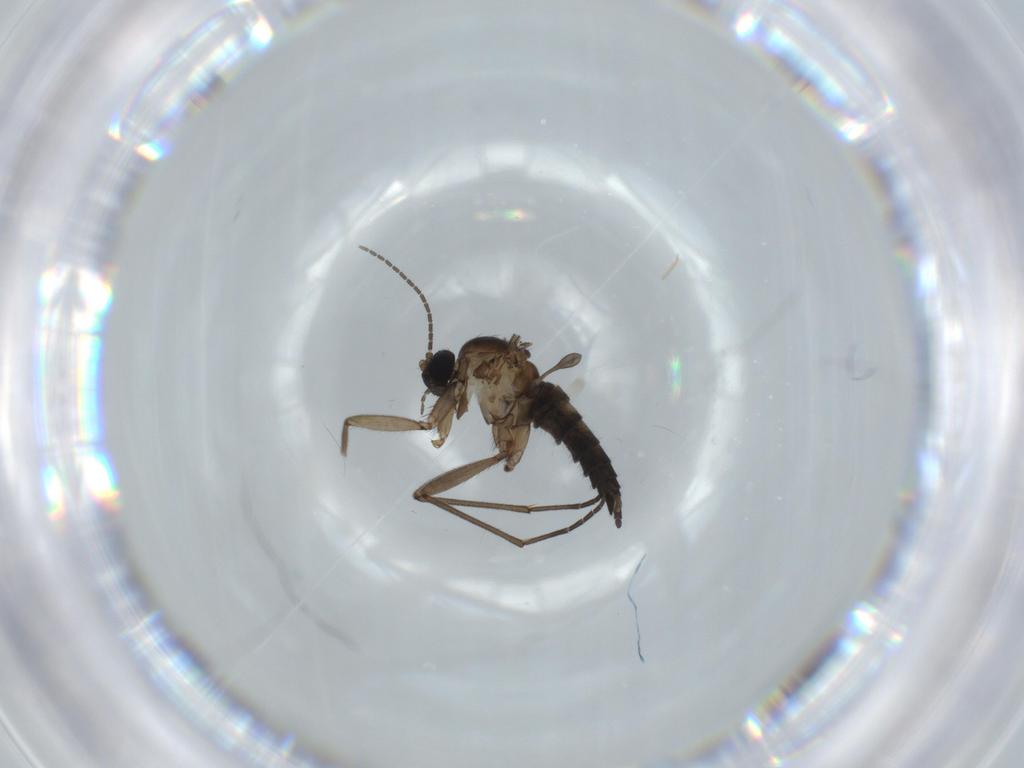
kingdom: Animalia
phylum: Arthropoda
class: Insecta
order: Diptera
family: Sciaridae
